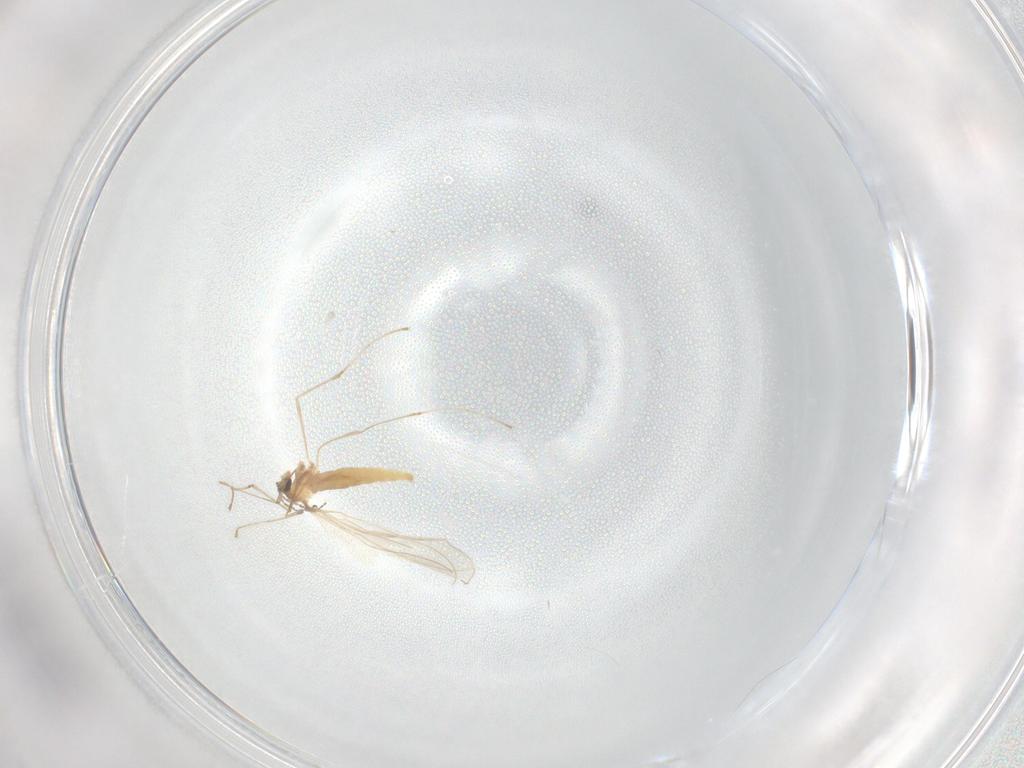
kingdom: Animalia
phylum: Arthropoda
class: Insecta
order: Diptera
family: Cecidomyiidae
